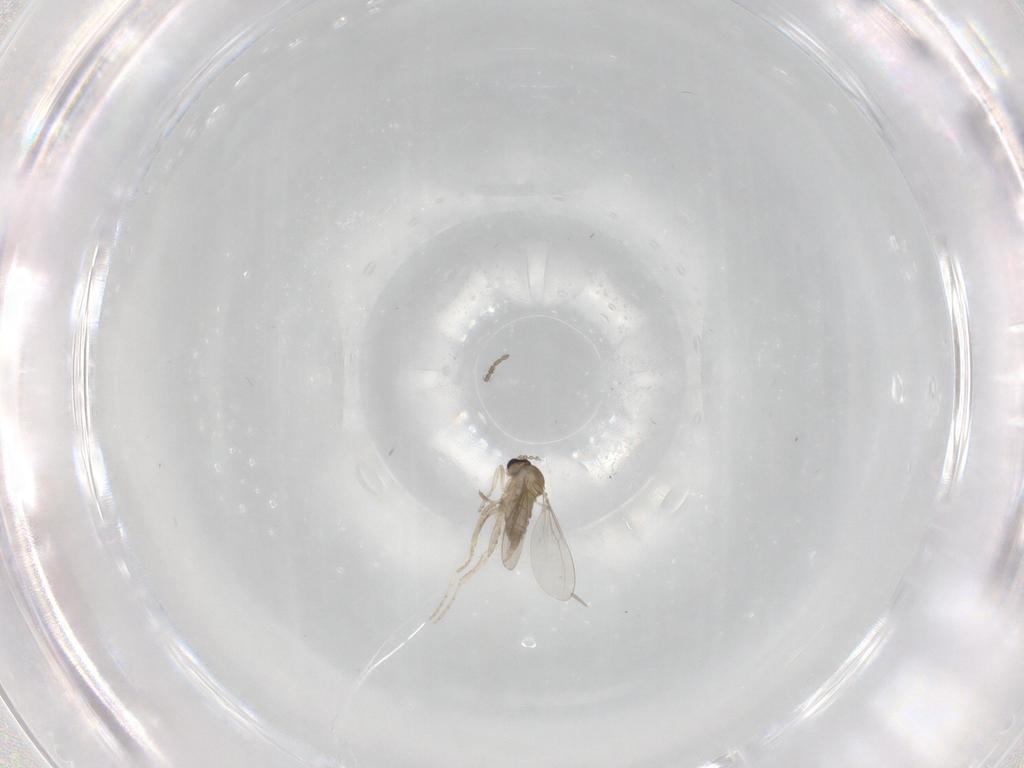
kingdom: Animalia
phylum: Arthropoda
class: Insecta
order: Diptera
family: Cecidomyiidae
